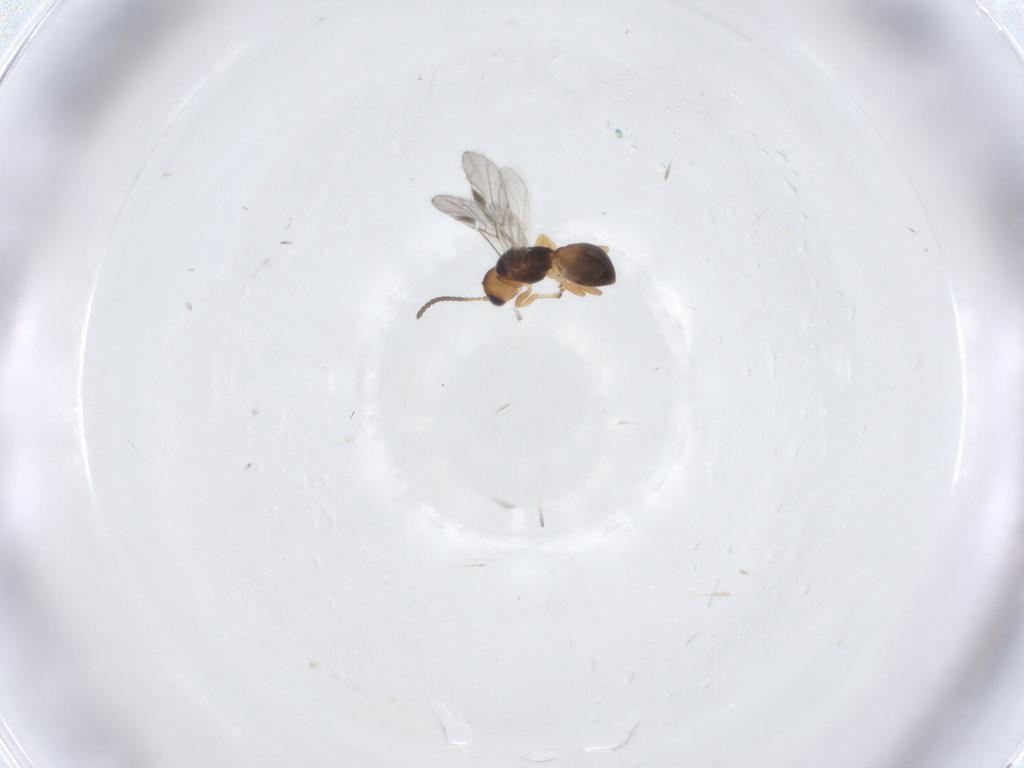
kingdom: Animalia
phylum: Arthropoda
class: Insecta
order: Hymenoptera
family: Braconidae
